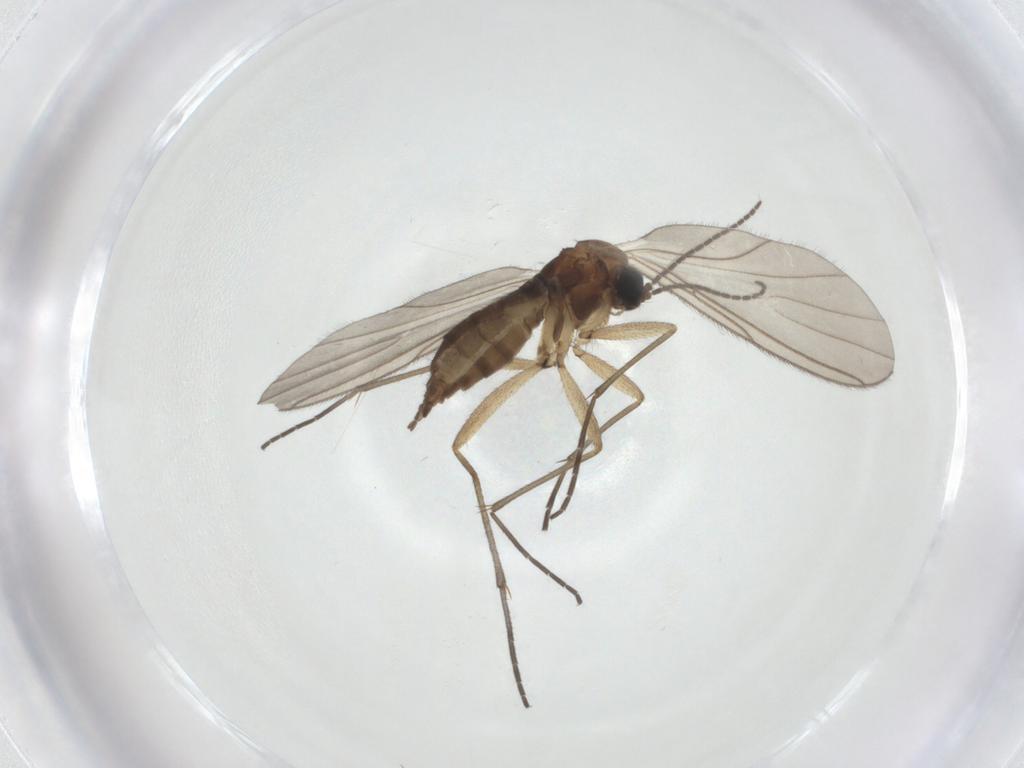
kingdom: Animalia
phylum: Arthropoda
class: Insecta
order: Diptera
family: Sciaridae
